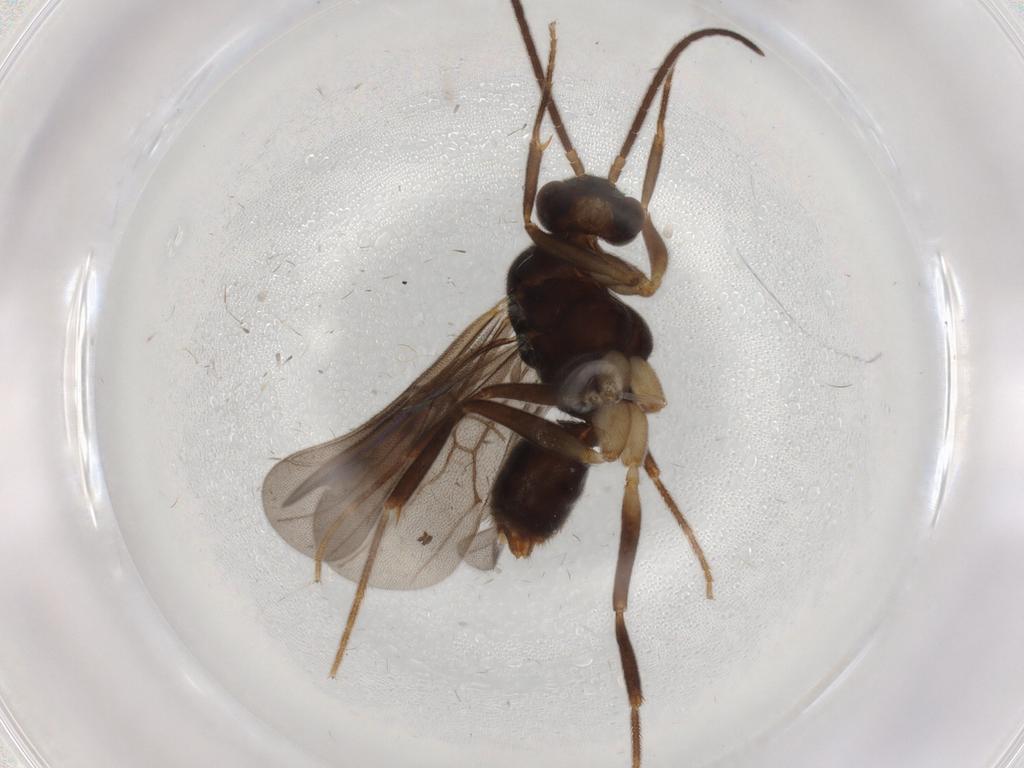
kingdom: Animalia
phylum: Arthropoda
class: Insecta
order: Hymenoptera
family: Formicidae
